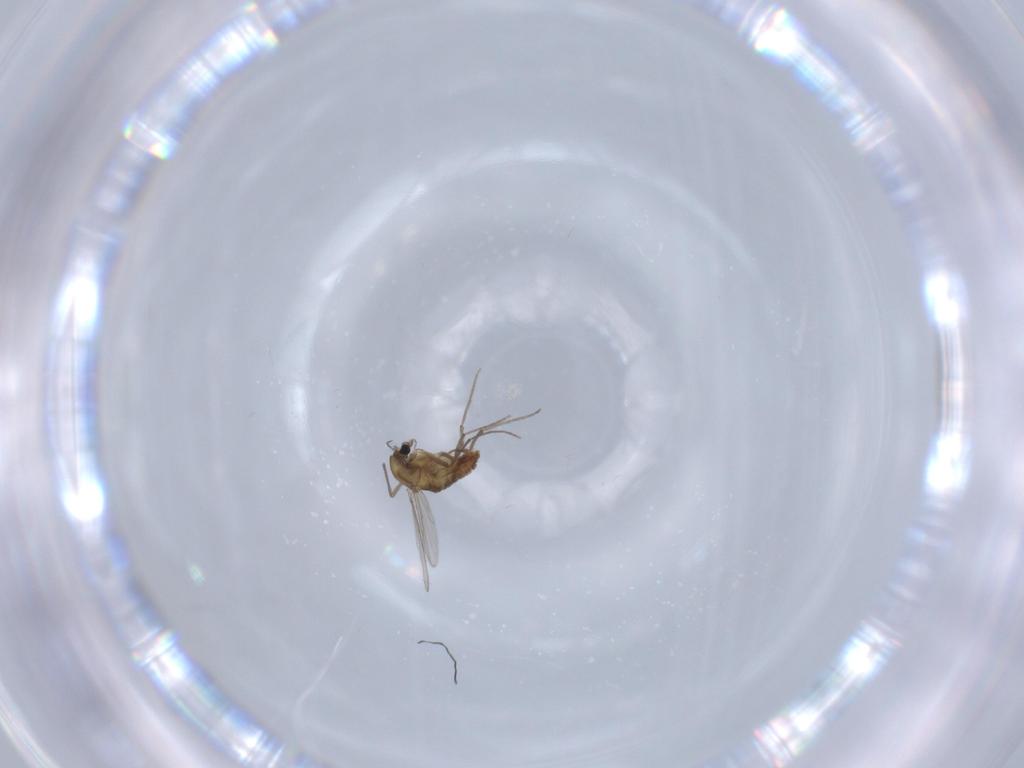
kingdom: Animalia
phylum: Arthropoda
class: Insecta
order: Diptera
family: Chironomidae
